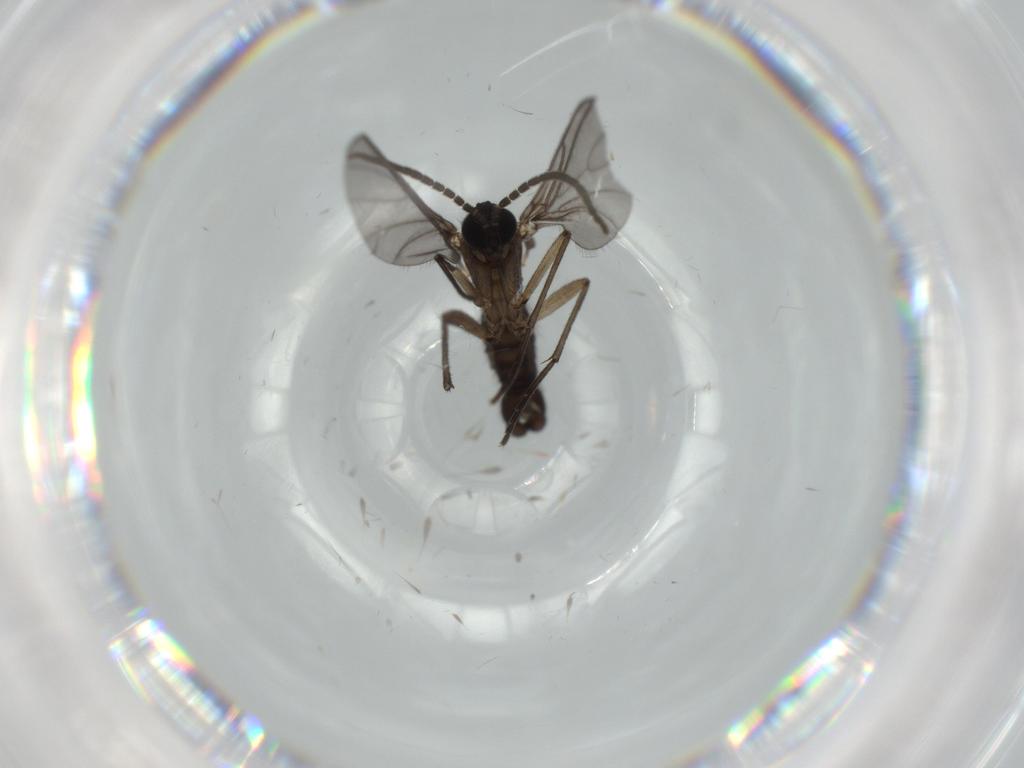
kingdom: Animalia
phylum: Arthropoda
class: Insecta
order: Diptera
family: Sciaridae
